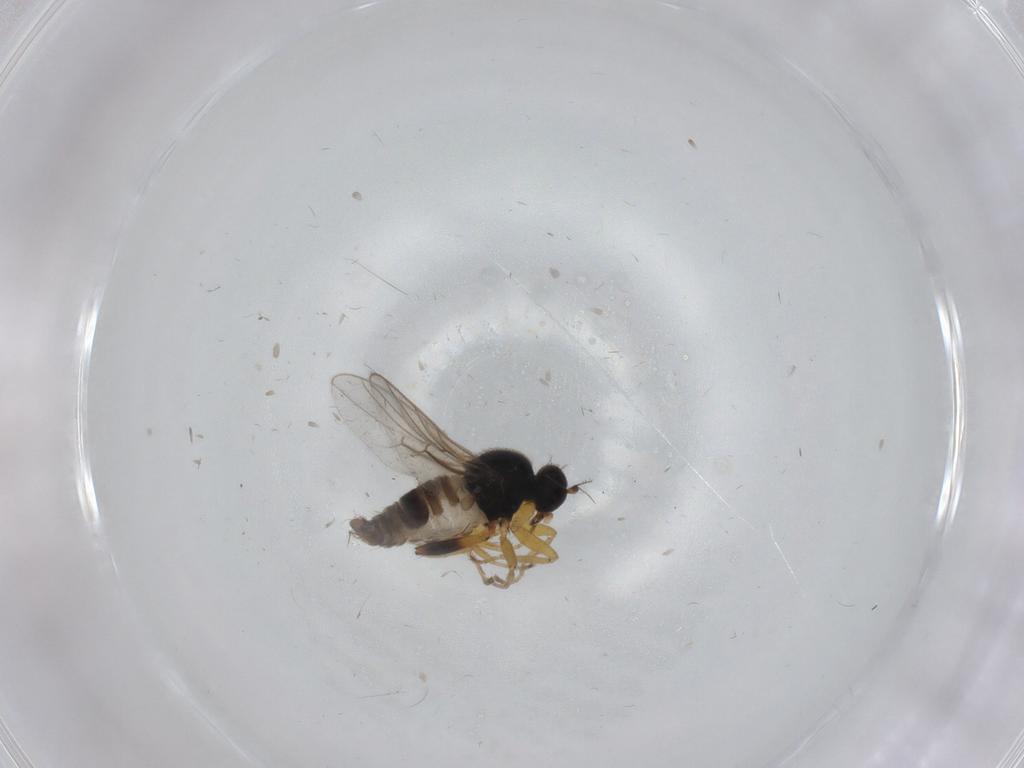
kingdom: Animalia
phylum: Arthropoda
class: Insecta
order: Diptera
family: Hybotidae
